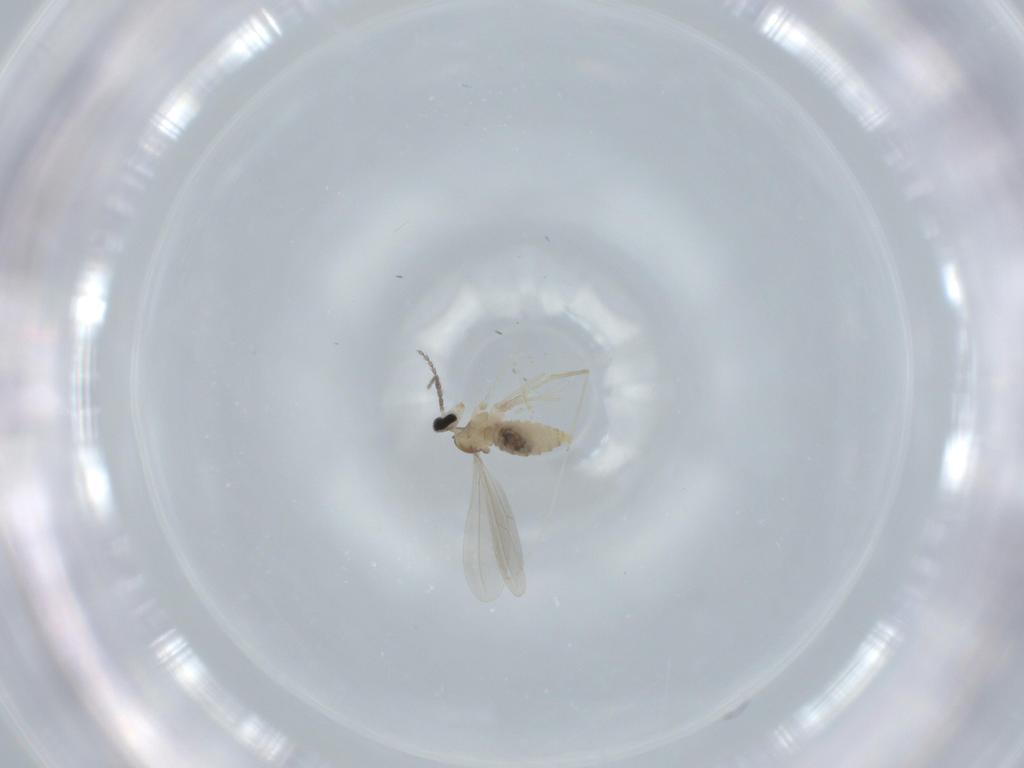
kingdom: Animalia
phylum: Arthropoda
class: Insecta
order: Diptera
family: Cecidomyiidae
